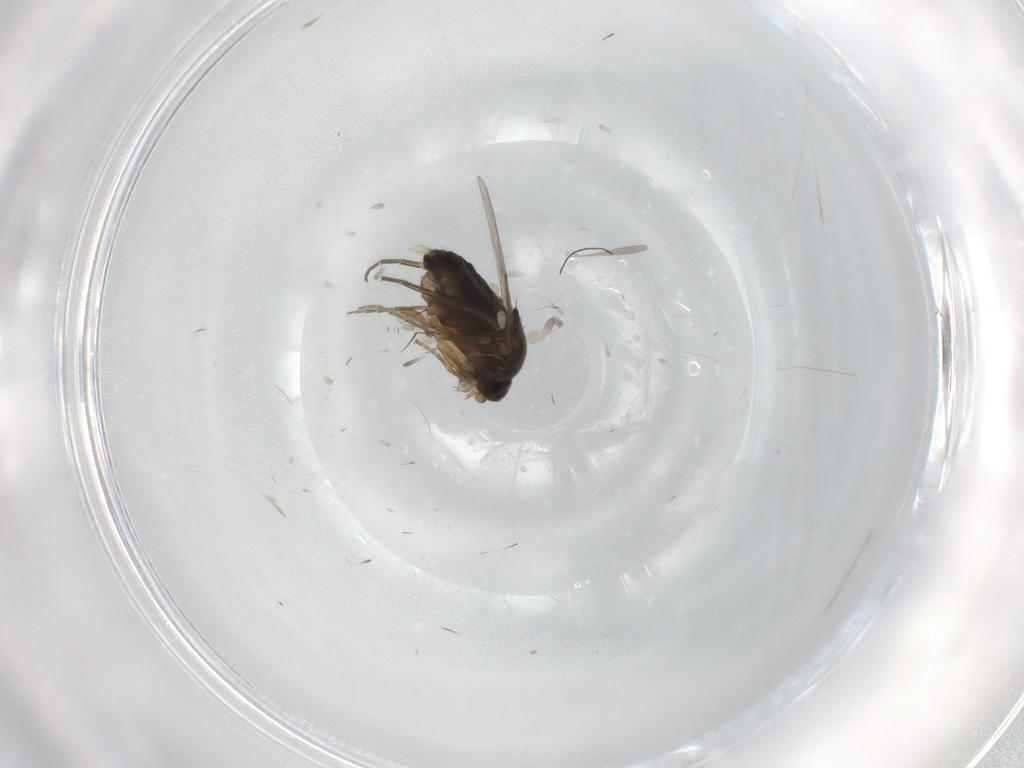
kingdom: Animalia
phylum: Arthropoda
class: Insecta
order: Diptera
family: Phoridae
